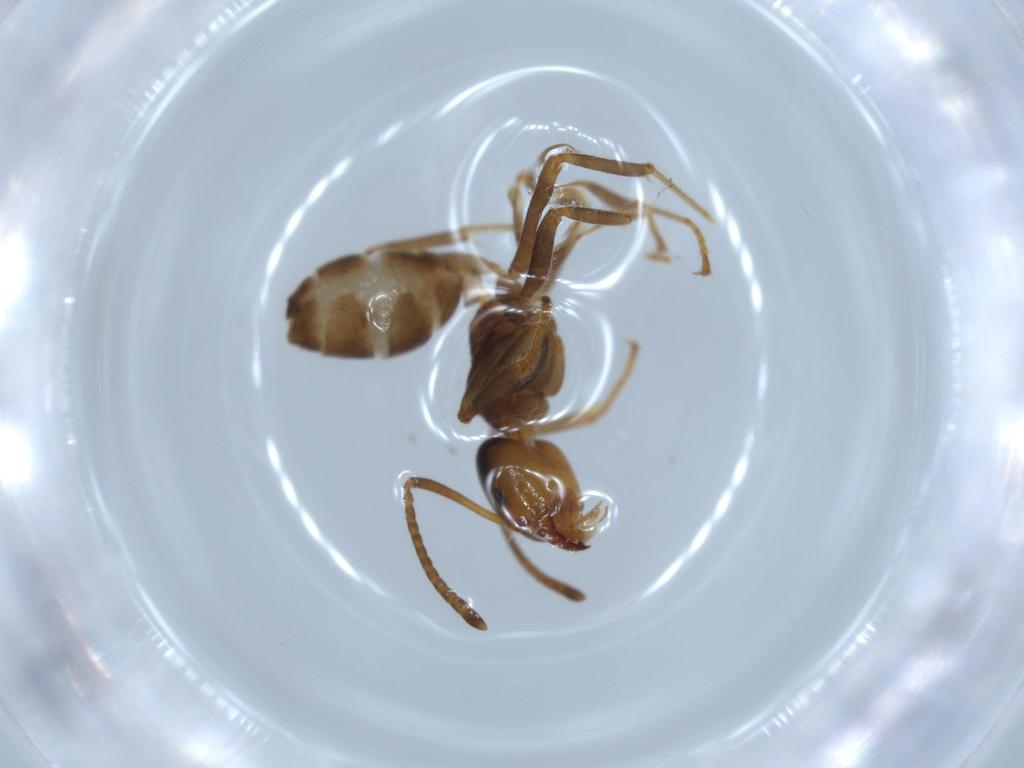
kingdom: Animalia
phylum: Arthropoda
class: Insecta
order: Hymenoptera
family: Formicidae
